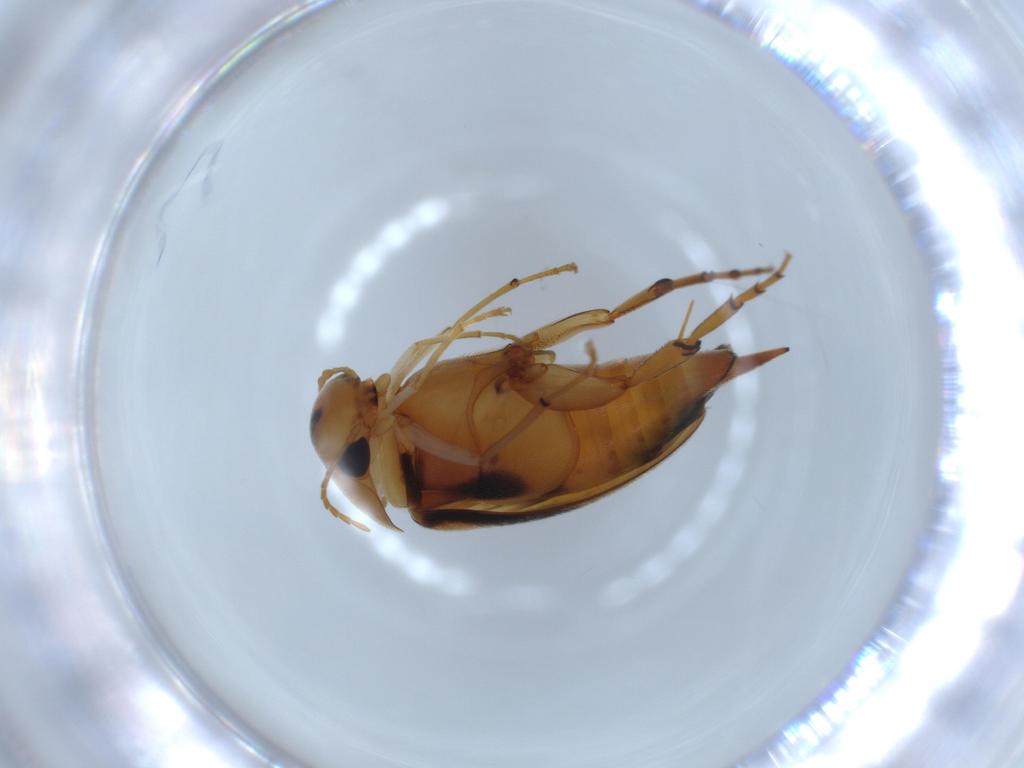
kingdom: Animalia
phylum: Arthropoda
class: Insecta
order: Coleoptera
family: Mordellidae
